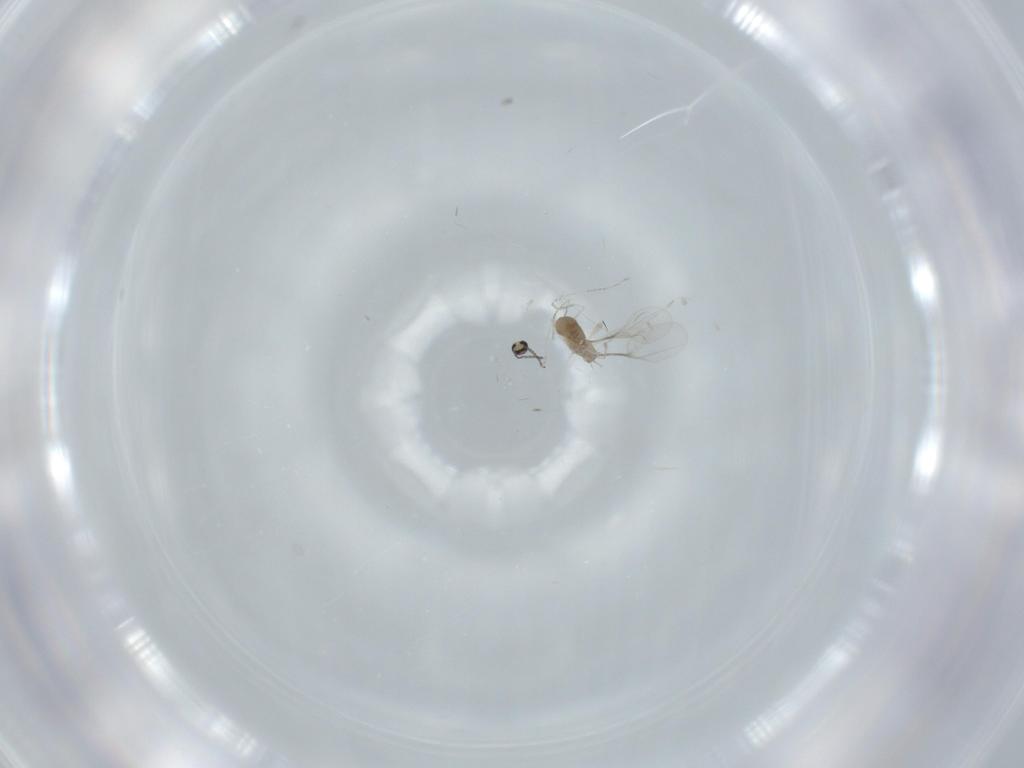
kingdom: Animalia
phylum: Arthropoda
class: Insecta
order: Diptera
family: Cecidomyiidae
